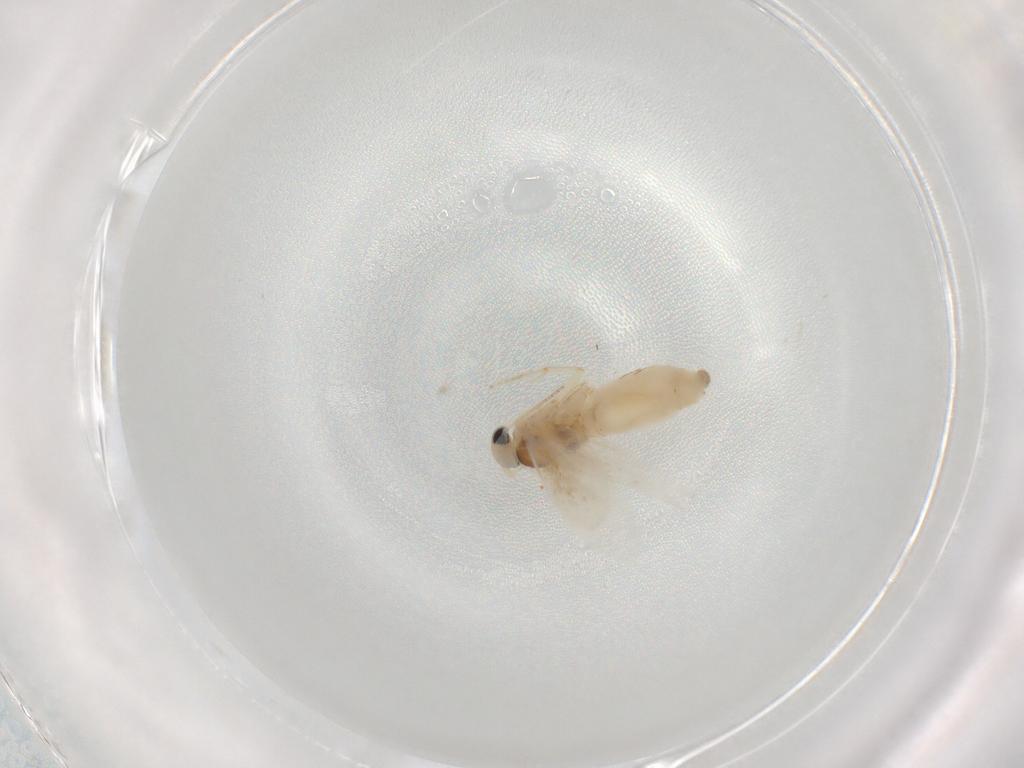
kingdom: Animalia
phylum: Arthropoda
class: Insecta
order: Lepidoptera
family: Bucculatricidae
